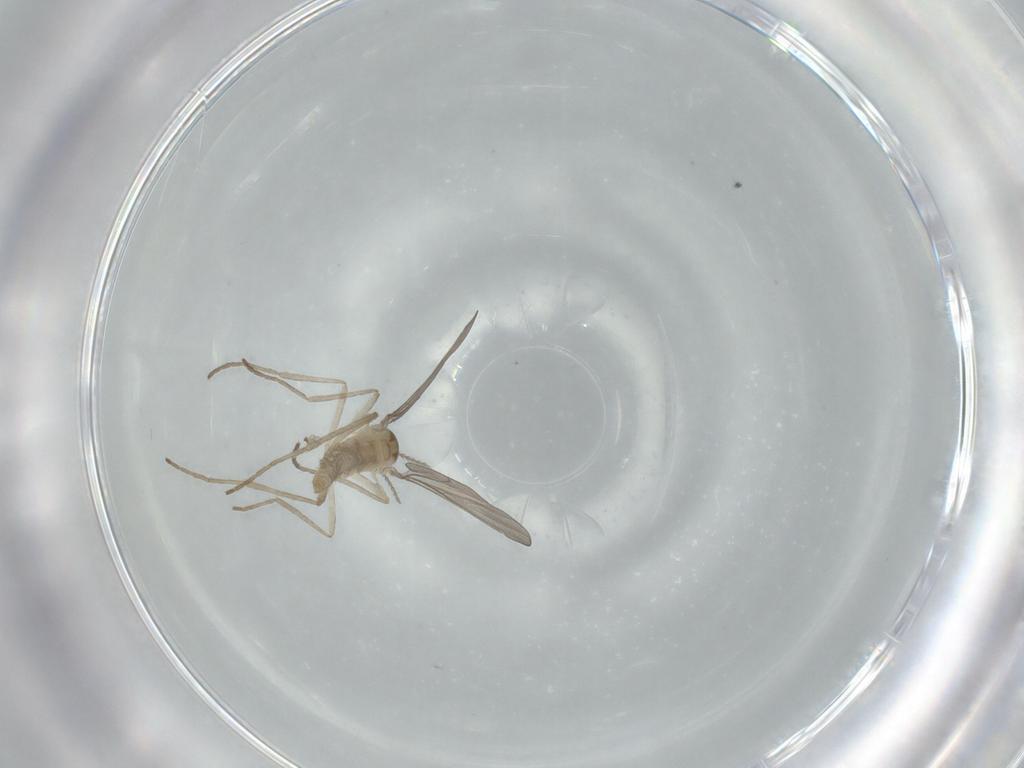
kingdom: Animalia
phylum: Arthropoda
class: Insecta
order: Diptera
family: Cecidomyiidae
